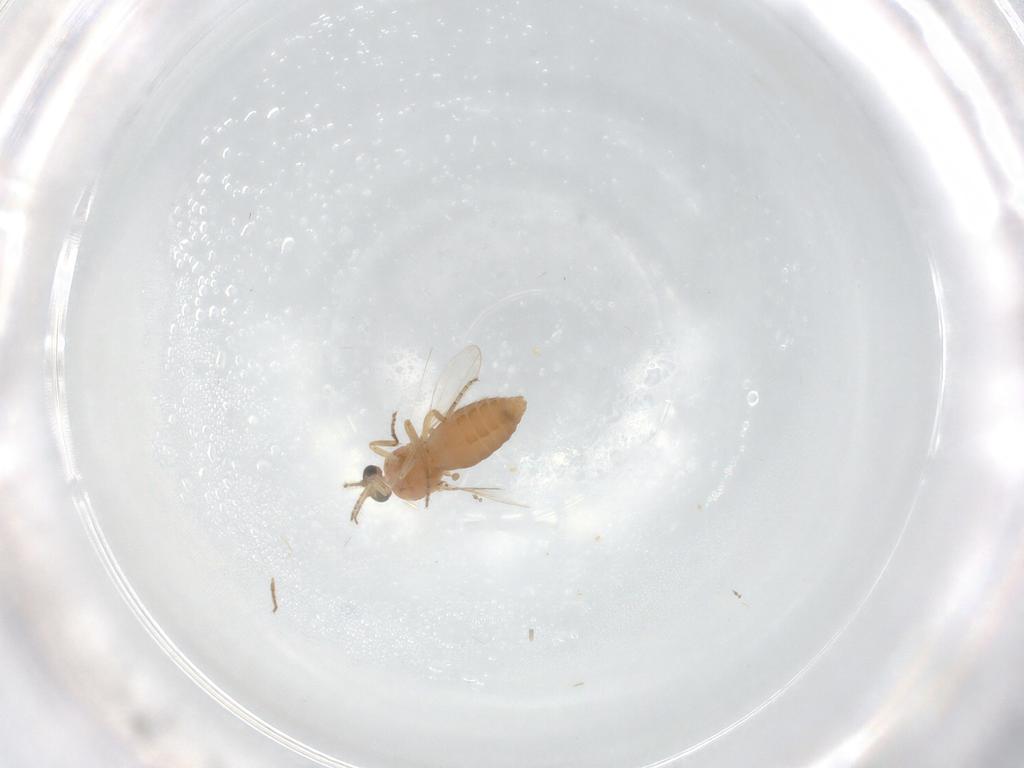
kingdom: Animalia
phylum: Arthropoda
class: Insecta
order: Diptera
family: Ceratopogonidae
